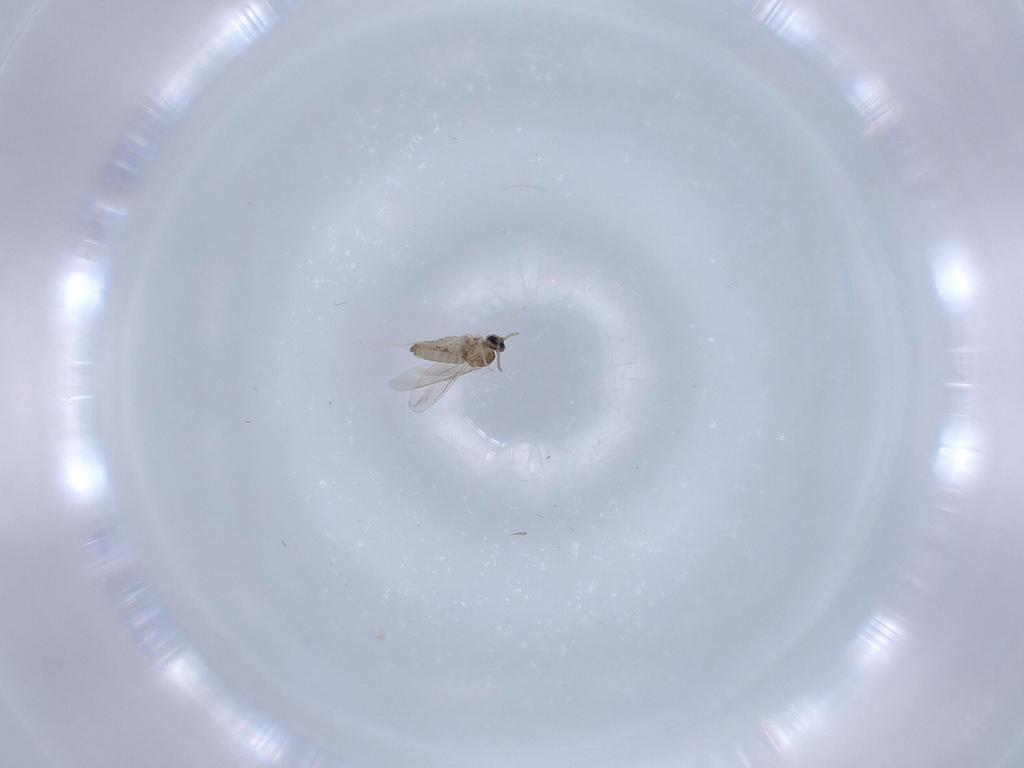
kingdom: Animalia
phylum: Arthropoda
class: Insecta
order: Diptera
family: Cecidomyiidae
